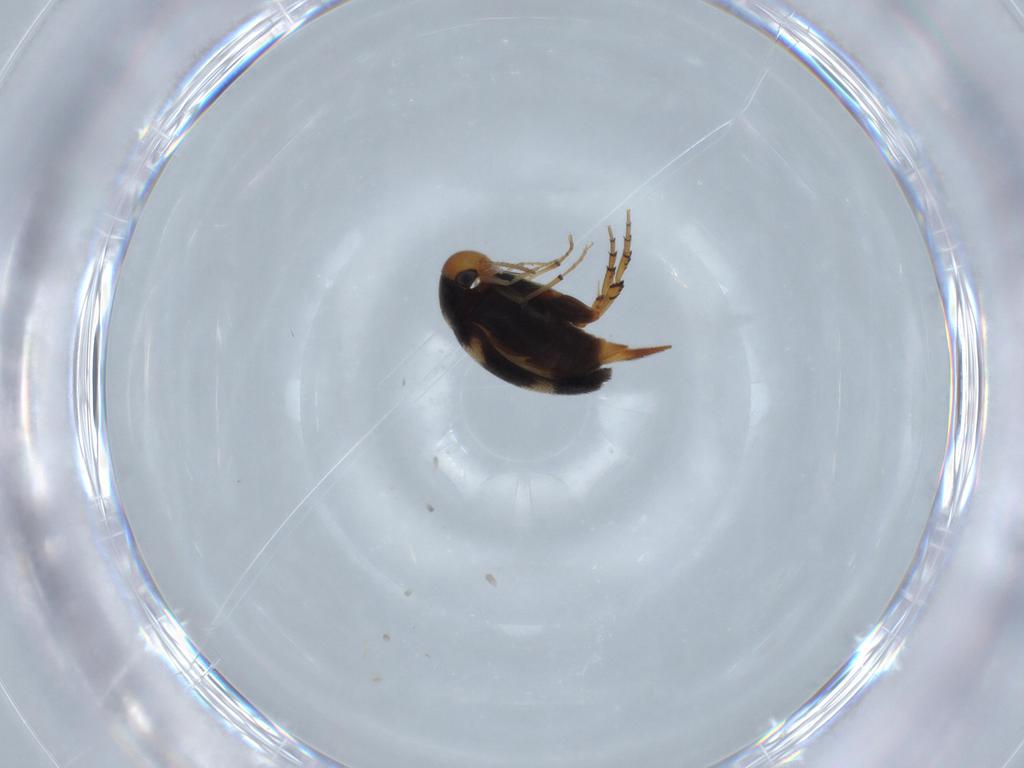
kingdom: Animalia
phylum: Arthropoda
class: Insecta
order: Coleoptera
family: Mordellidae
